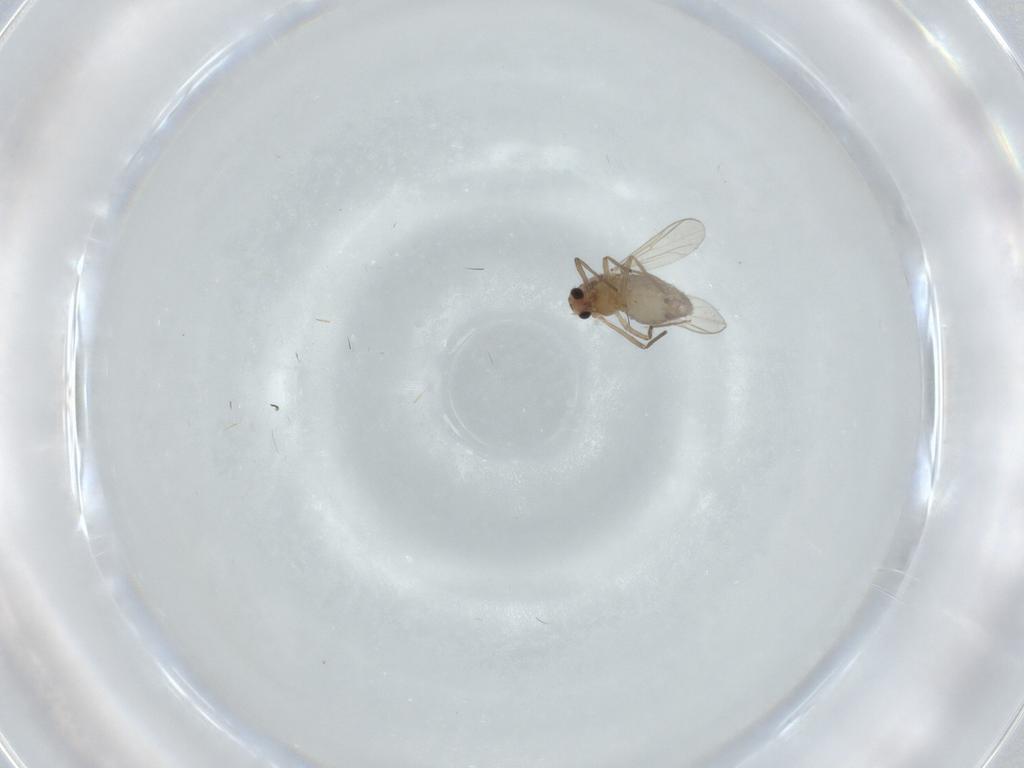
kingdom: Animalia
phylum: Arthropoda
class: Insecta
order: Diptera
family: Chironomidae
